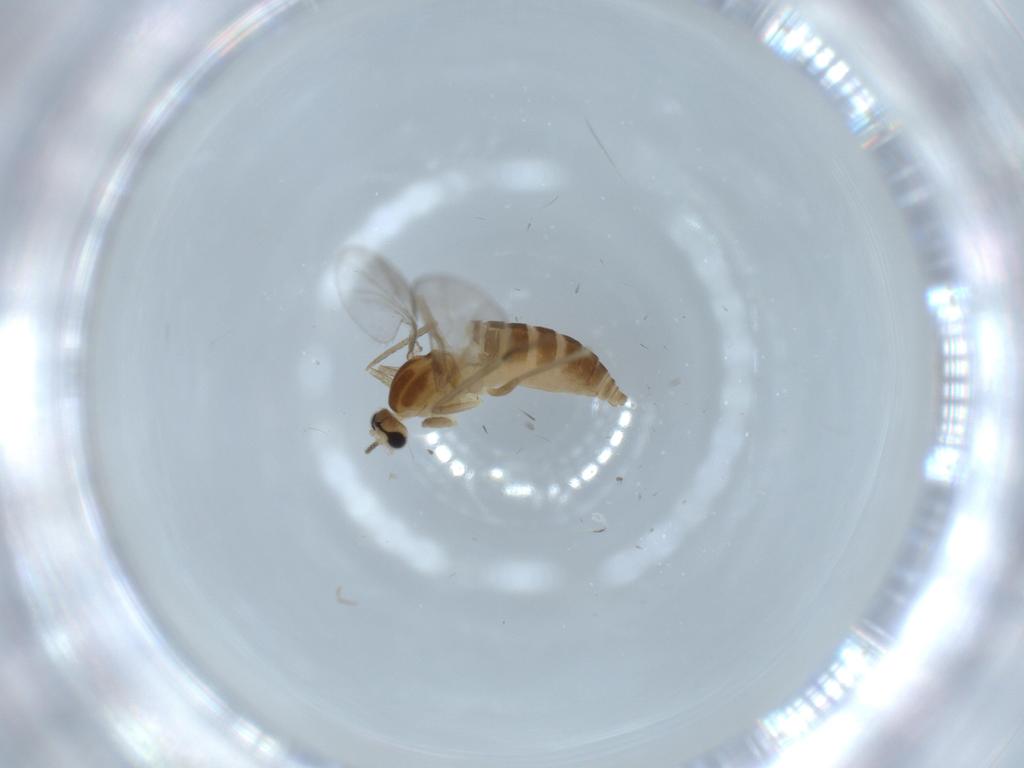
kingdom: Animalia
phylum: Arthropoda
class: Insecta
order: Diptera
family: Cecidomyiidae
